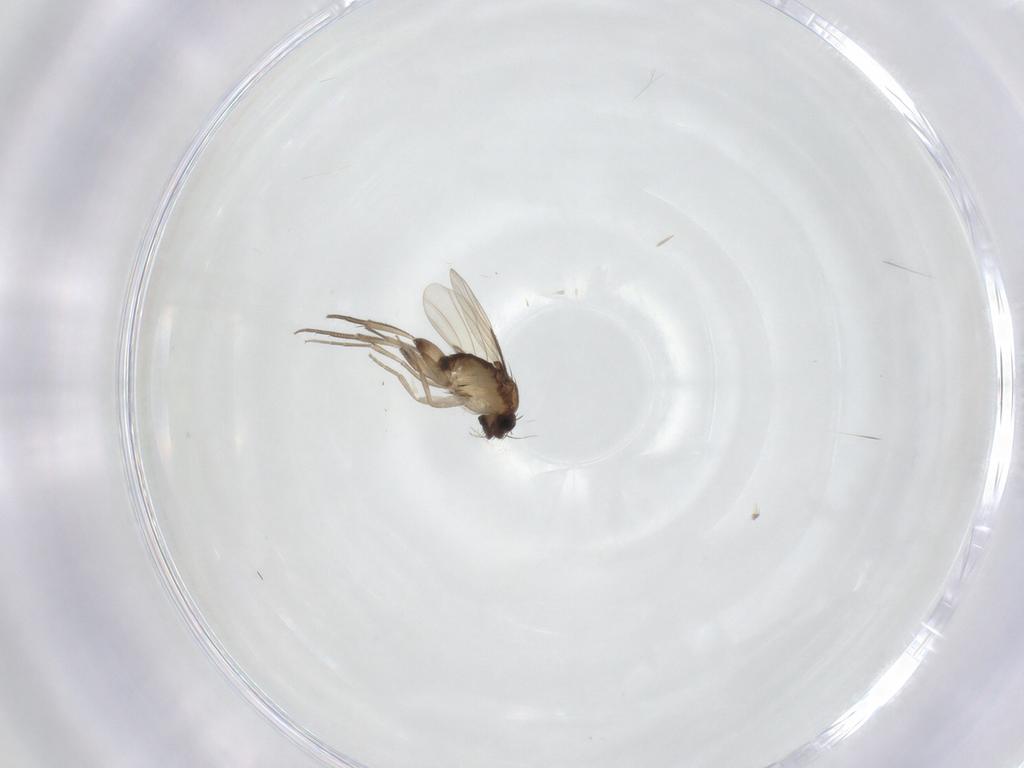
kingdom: Animalia
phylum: Arthropoda
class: Insecta
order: Diptera
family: Phoridae
